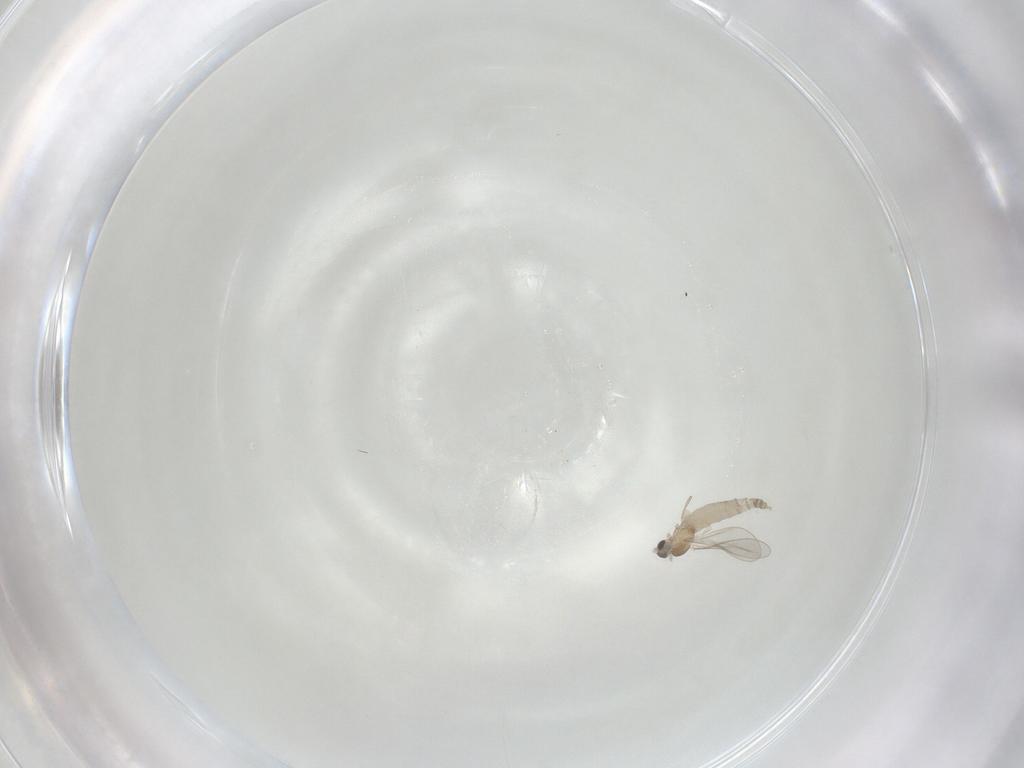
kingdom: Animalia
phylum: Arthropoda
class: Insecta
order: Diptera
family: Cecidomyiidae
